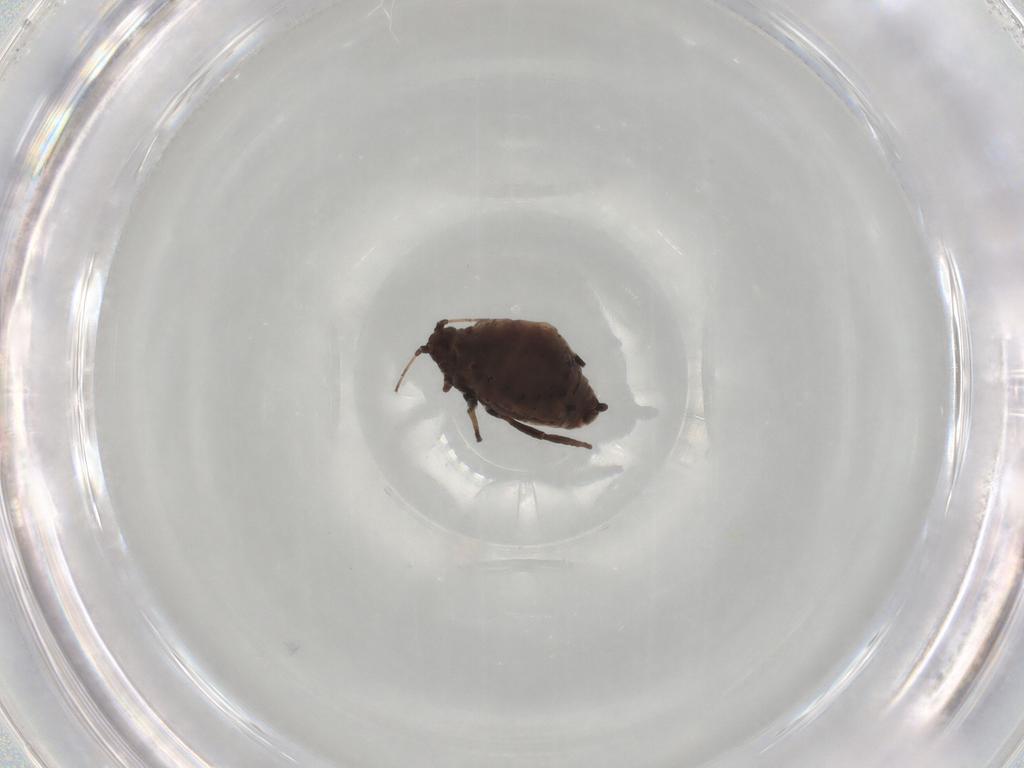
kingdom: Animalia
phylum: Arthropoda
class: Insecta
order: Hemiptera
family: Aphididae
